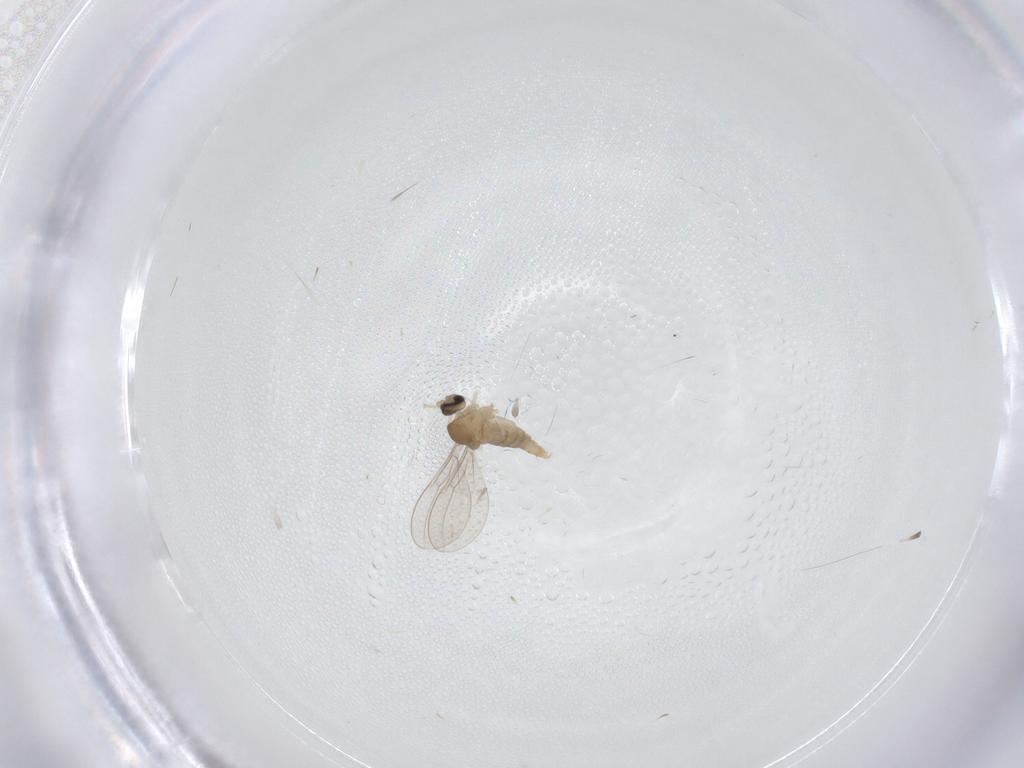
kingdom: Animalia
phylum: Arthropoda
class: Insecta
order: Diptera
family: Cecidomyiidae
